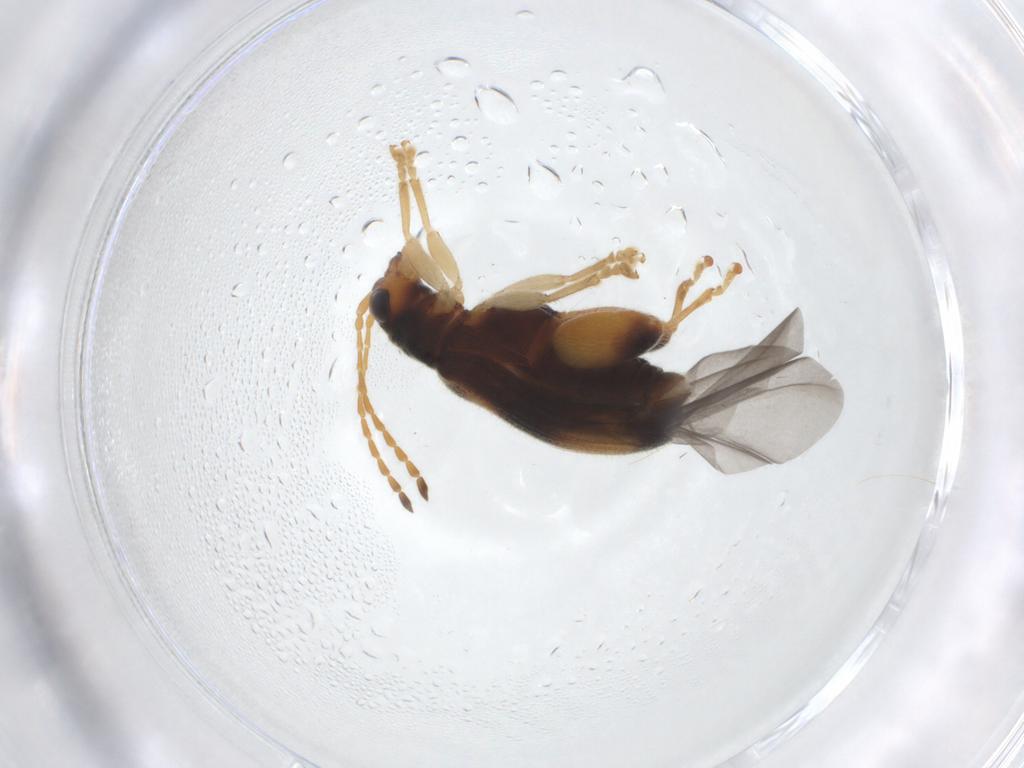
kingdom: Animalia
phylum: Arthropoda
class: Insecta
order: Coleoptera
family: Chrysomelidae
